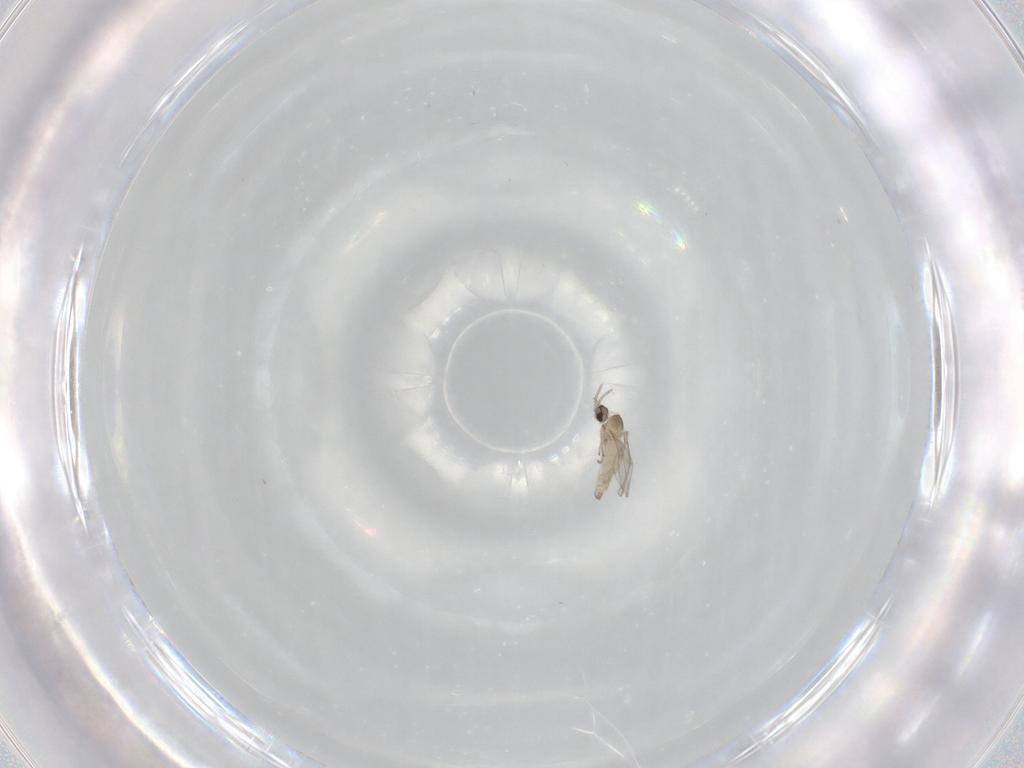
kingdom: Animalia
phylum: Arthropoda
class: Insecta
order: Diptera
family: Cecidomyiidae
